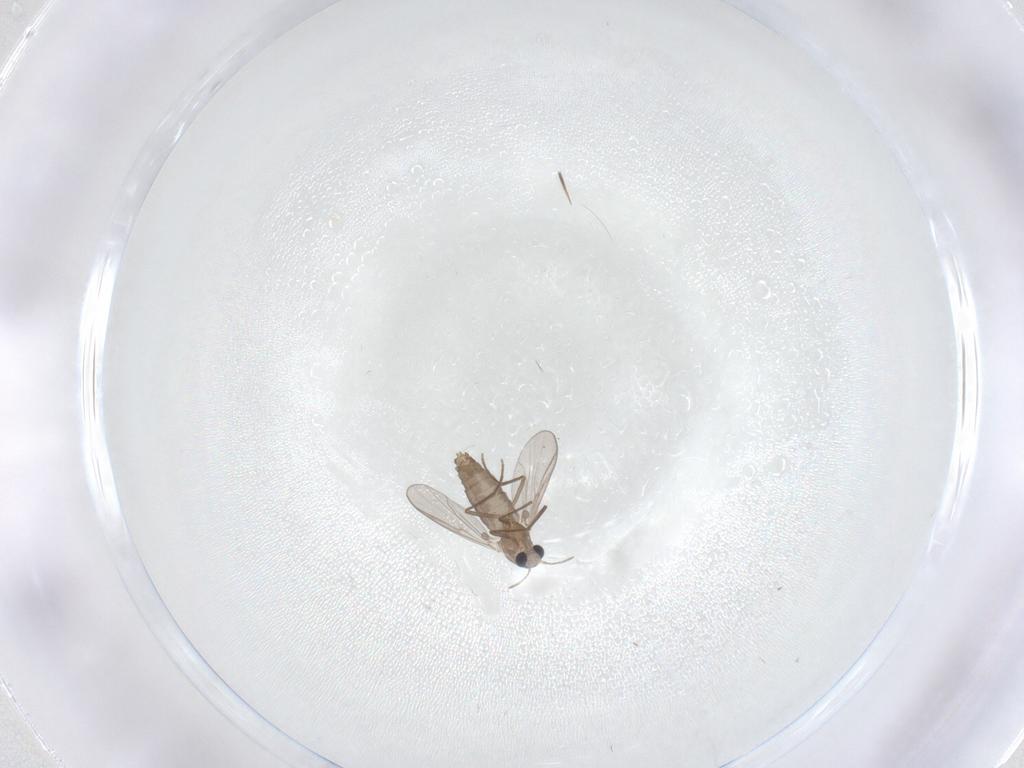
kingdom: Animalia
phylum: Arthropoda
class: Insecta
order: Diptera
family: Chironomidae
